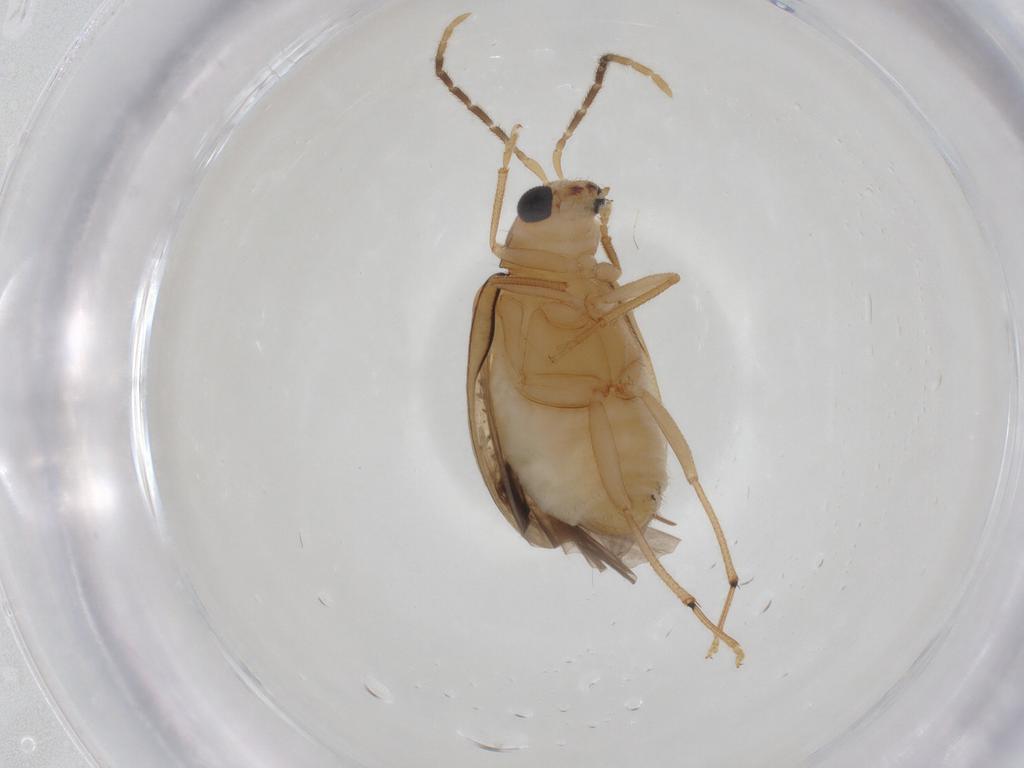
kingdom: Animalia
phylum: Arthropoda
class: Insecta
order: Coleoptera
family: Chrysomelidae
